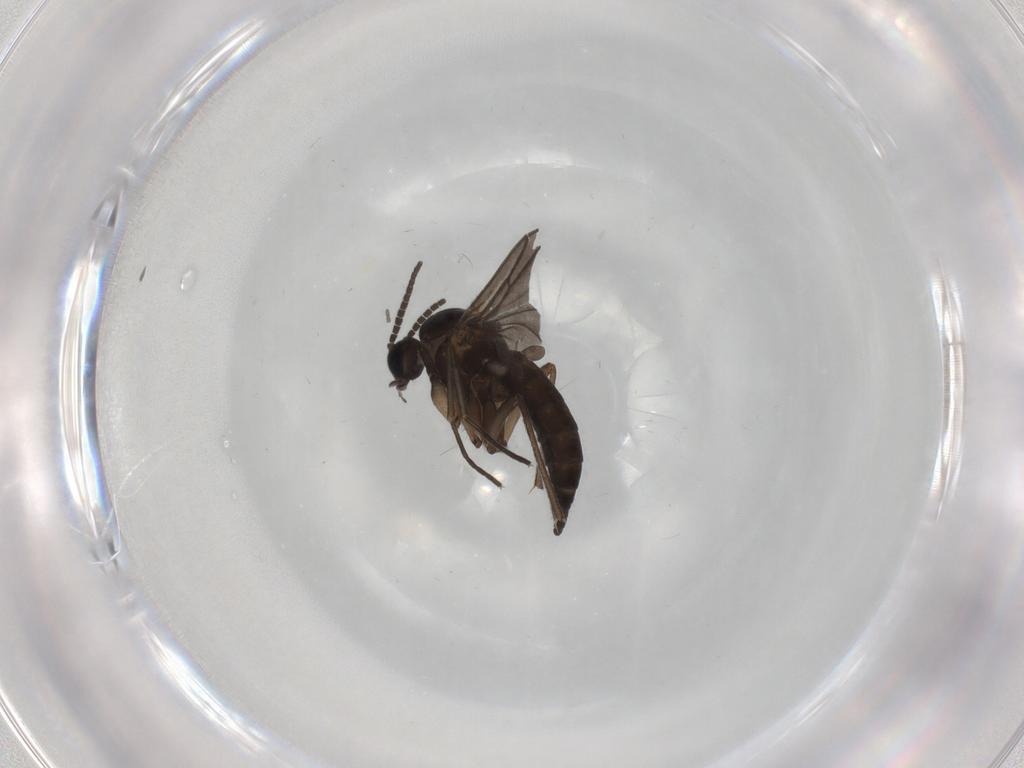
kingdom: Animalia
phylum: Arthropoda
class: Insecta
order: Diptera
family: Sciaridae
